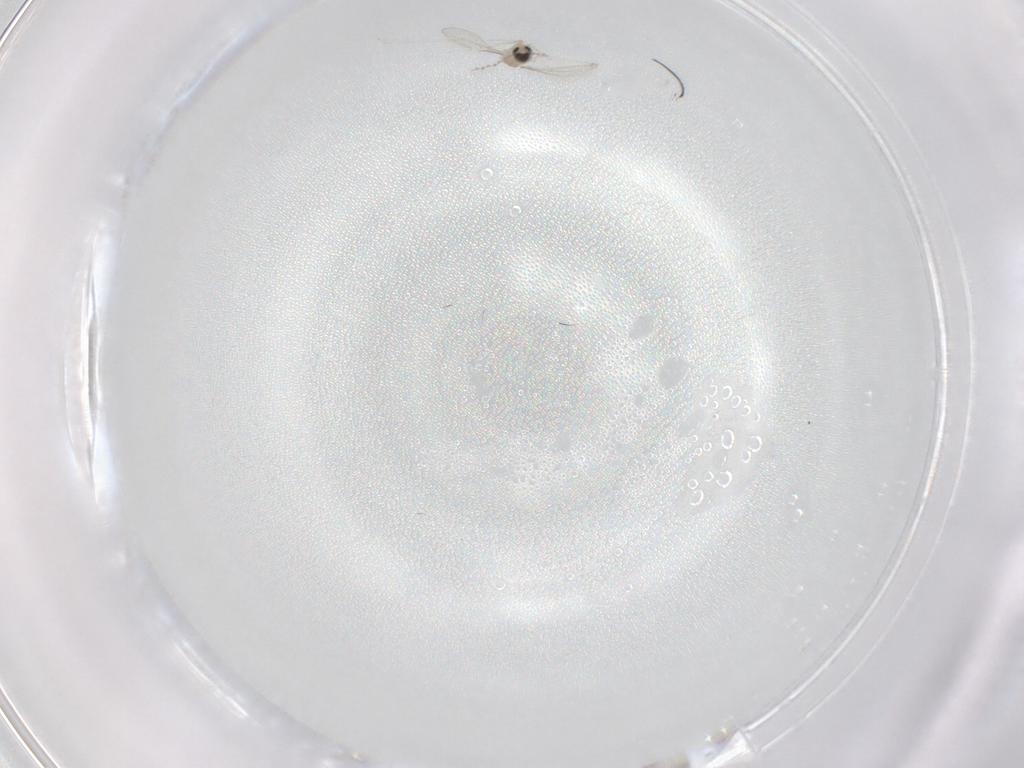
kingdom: Animalia
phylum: Arthropoda
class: Insecta
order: Diptera
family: Cecidomyiidae
